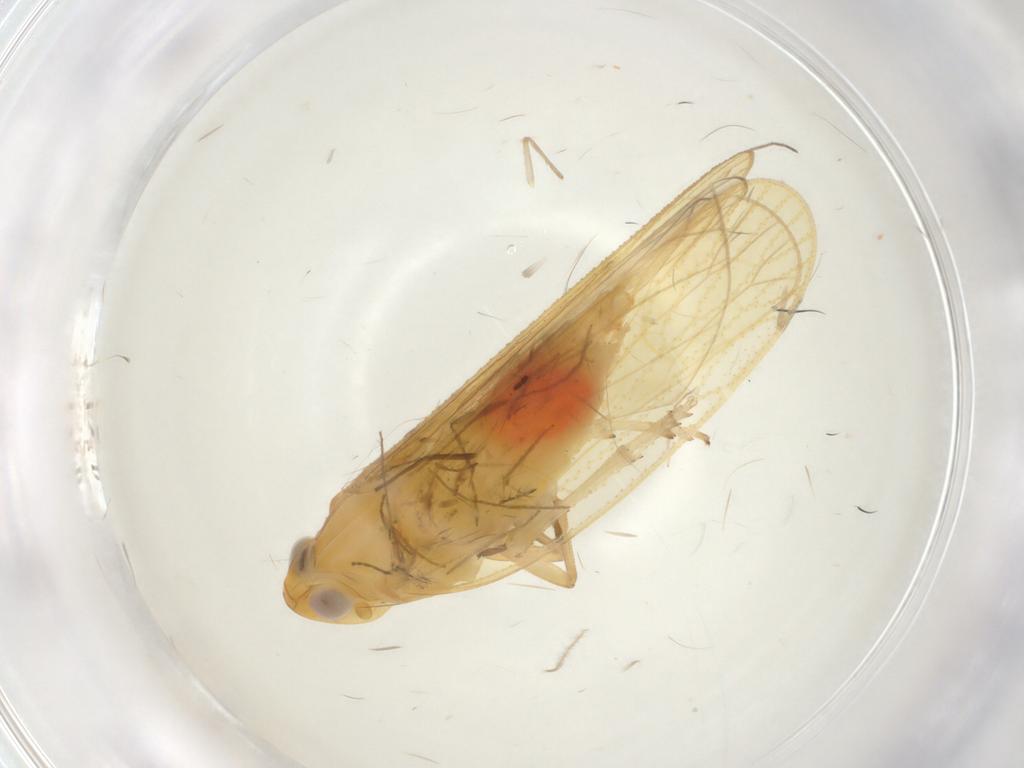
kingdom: Animalia
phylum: Arthropoda
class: Insecta
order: Hemiptera
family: Cixiidae
